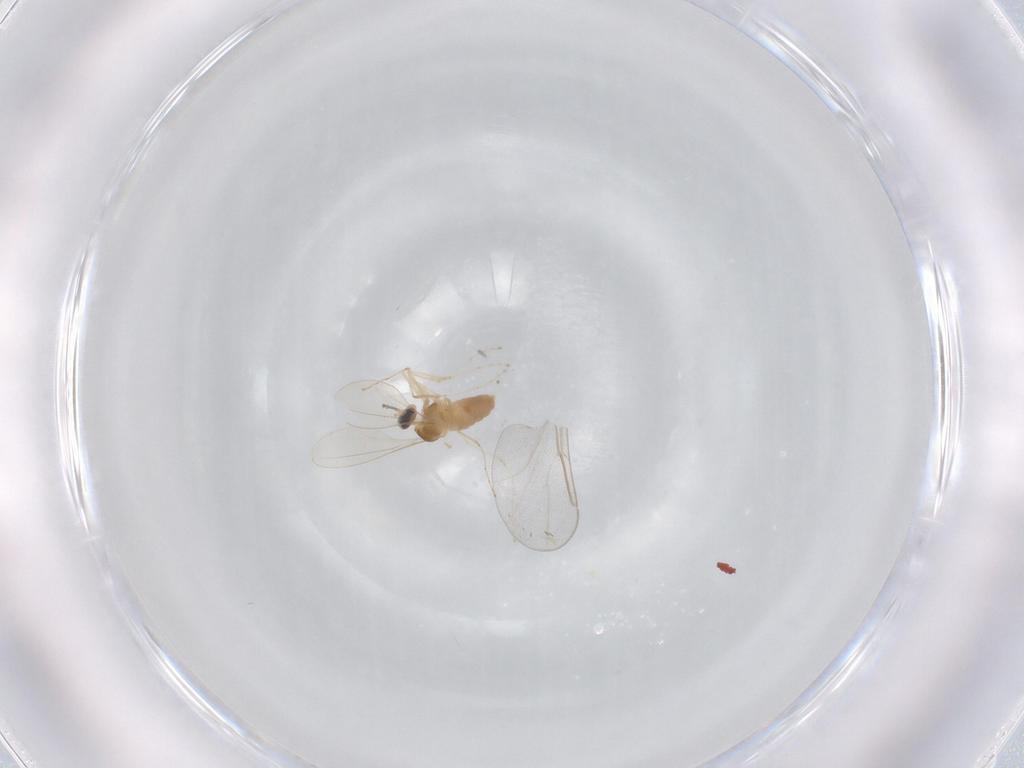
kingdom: Animalia
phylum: Arthropoda
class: Insecta
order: Diptera
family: Cecidomyiidae
